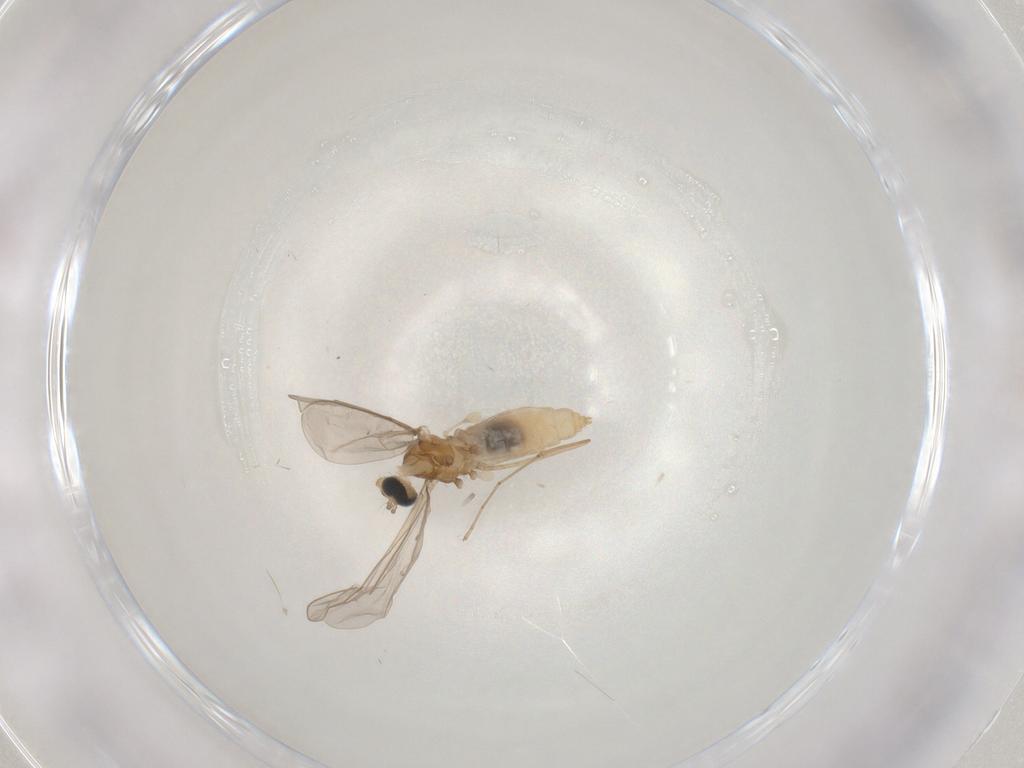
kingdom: Animalia
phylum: Arthropoda
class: Insecta
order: Diptera
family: Cecidomyiidae
